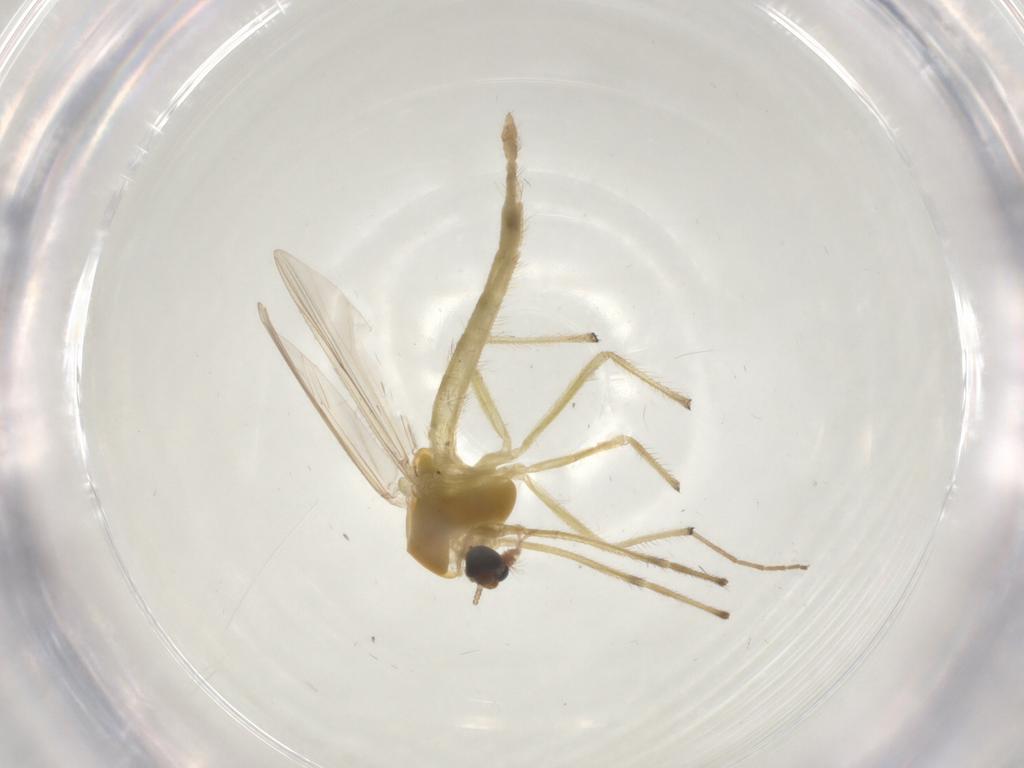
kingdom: Animalia
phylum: Arthropoda
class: Insecta
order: Diptera
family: Chironomidae
